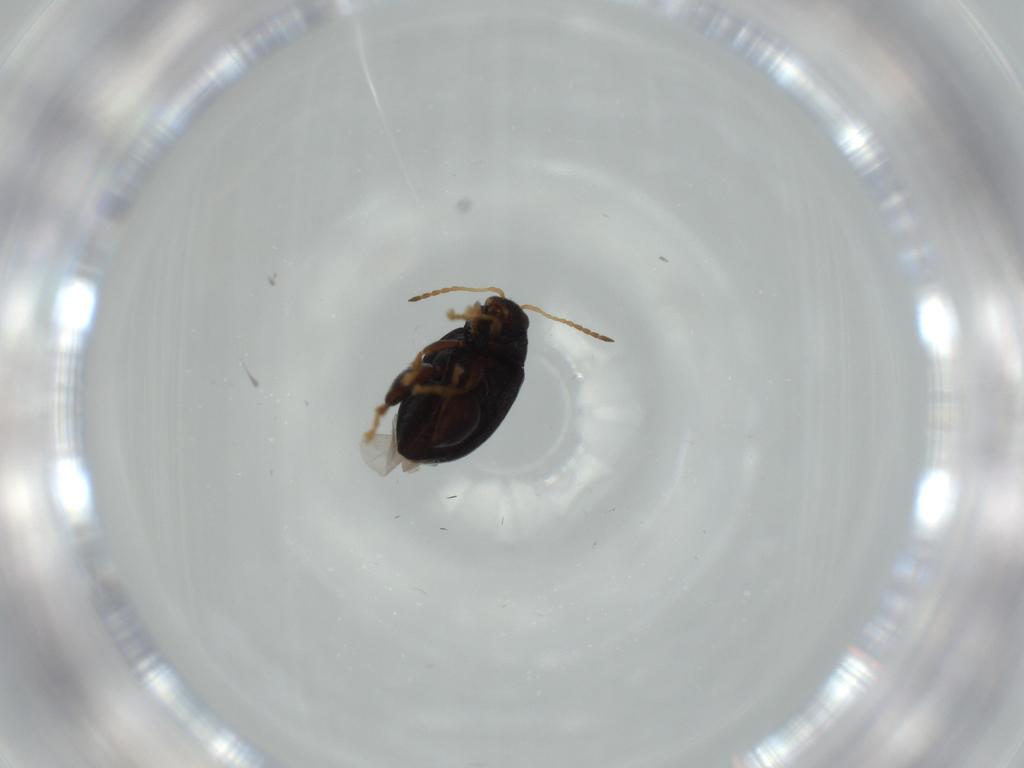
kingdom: Animalia
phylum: Arthropoda
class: Insecta
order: Coleoptera
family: Chrysomelidae
